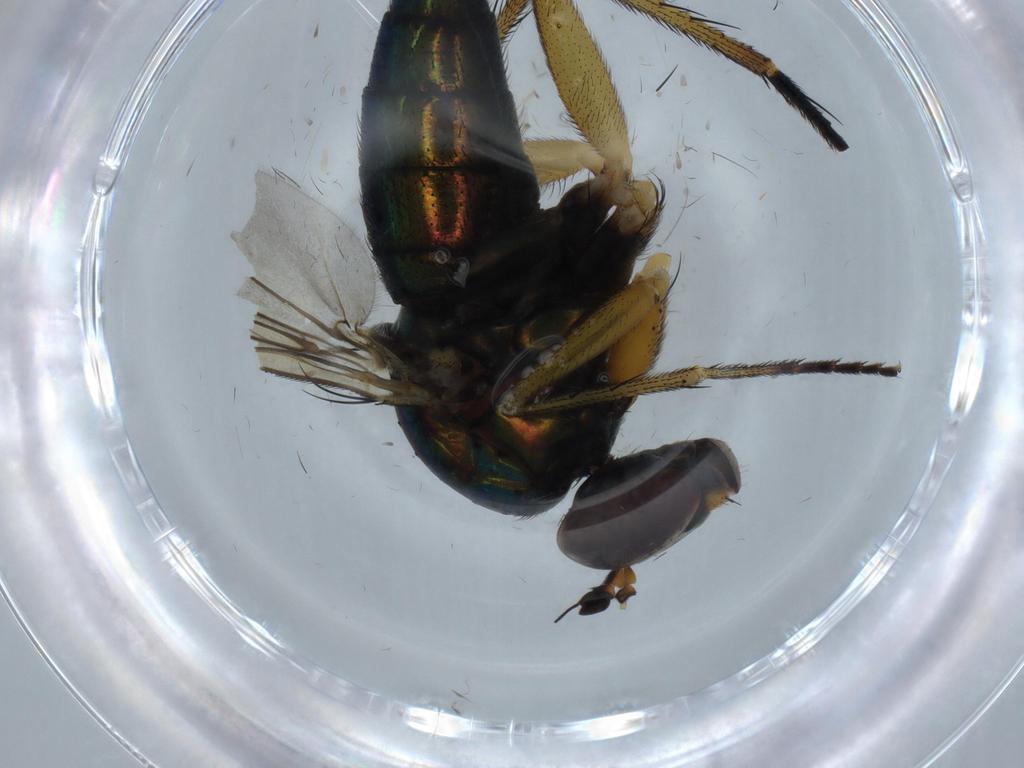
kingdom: Animalia
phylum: Arthropoda
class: Insecta
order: Diptera
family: Dolichopodidae
